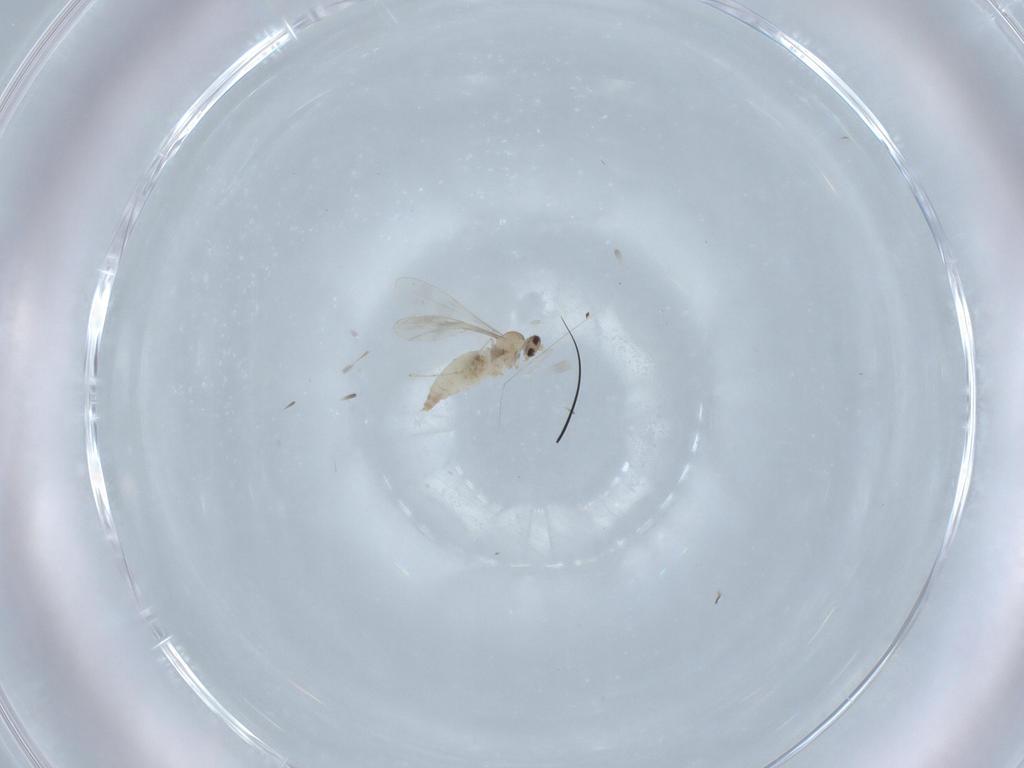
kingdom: Animalia
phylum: Arthropoda
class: Insecta
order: Diptera
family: Cecidomyiidae
